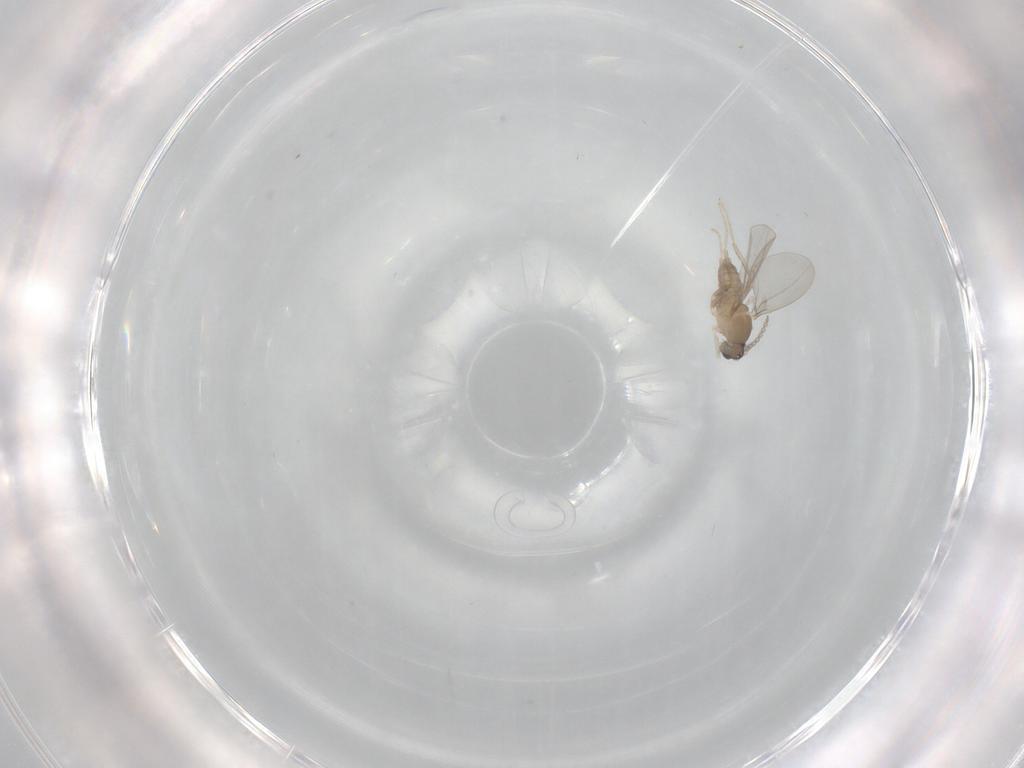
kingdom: Animalia
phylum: Arthropoda
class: Insecta
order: Diptera
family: Cecidomyiidae
